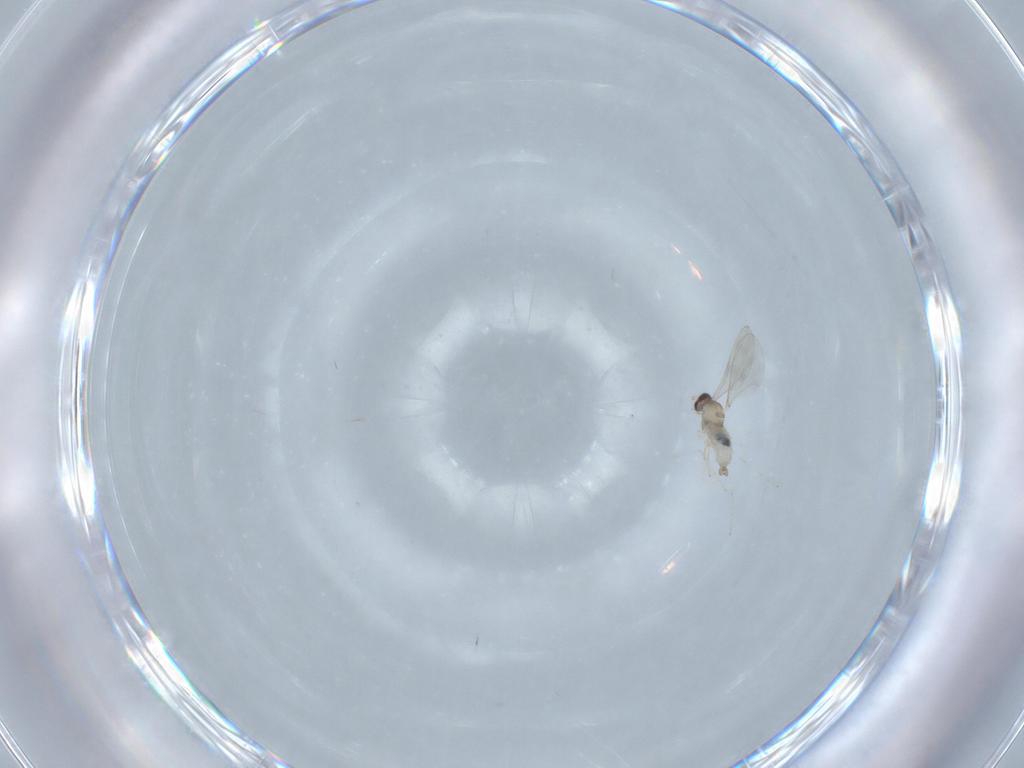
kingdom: Animalia
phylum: Arthropoda
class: Insecta
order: Diptera
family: Cecidomyiidae
